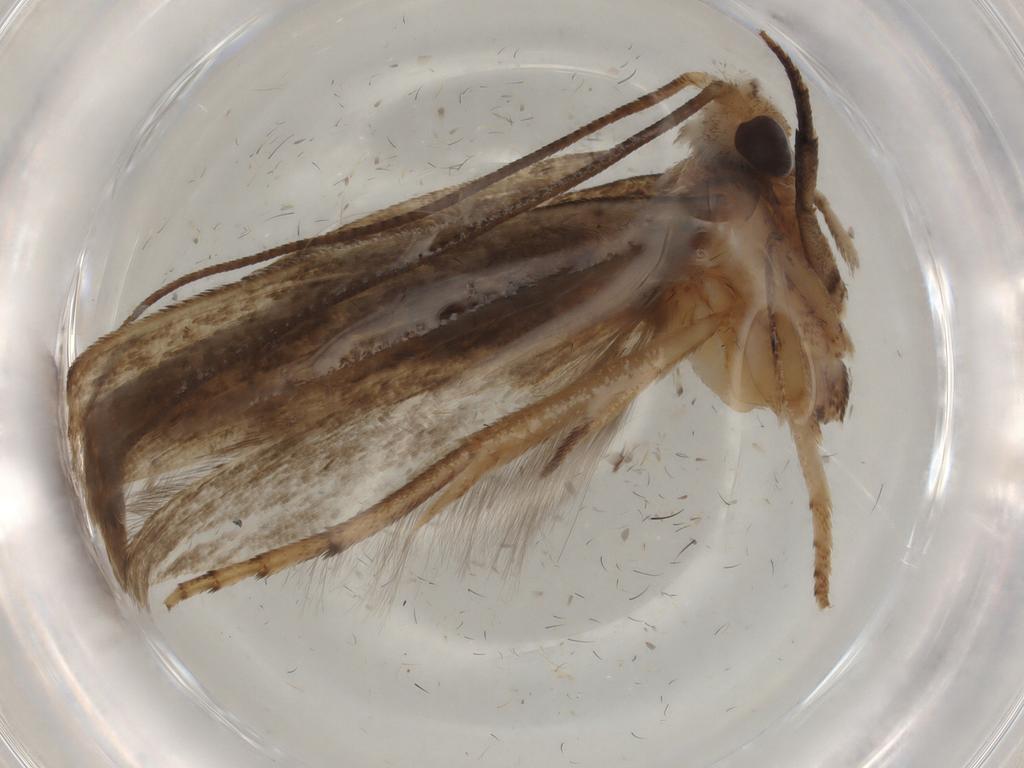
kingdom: Animalia
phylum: Arthropoda
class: Insecta
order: Lepidoptera
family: Yponomeutidae
